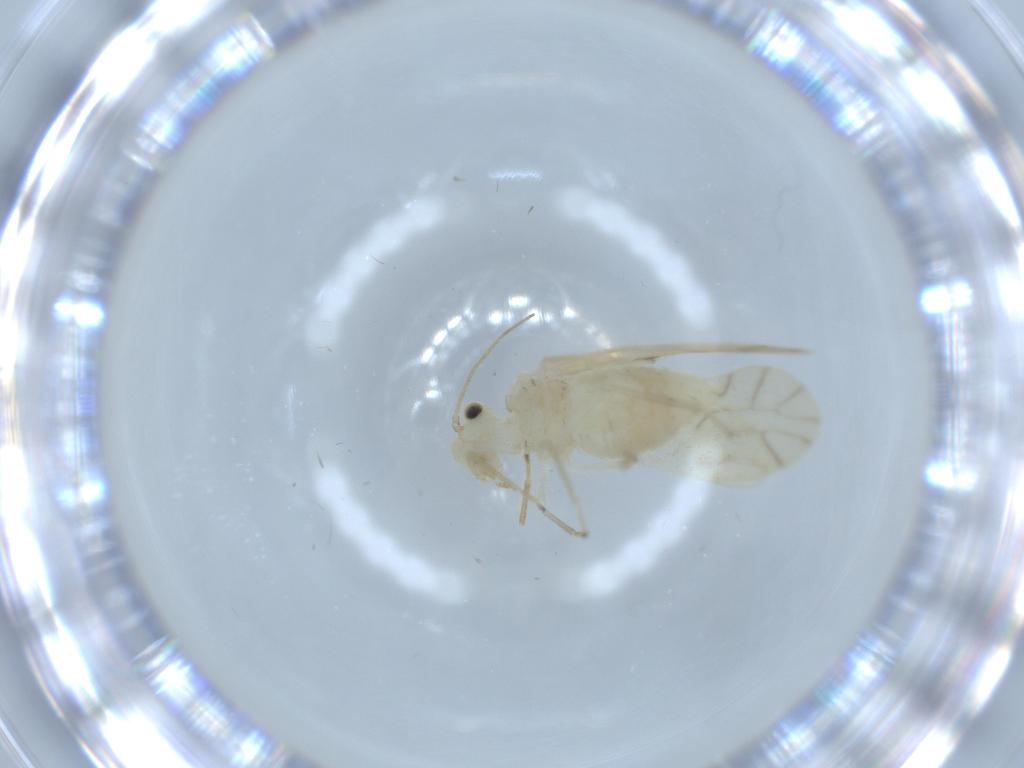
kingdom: Animalia
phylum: Arthropoda
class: Insecta
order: Psocodea
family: Caeciliusidae
